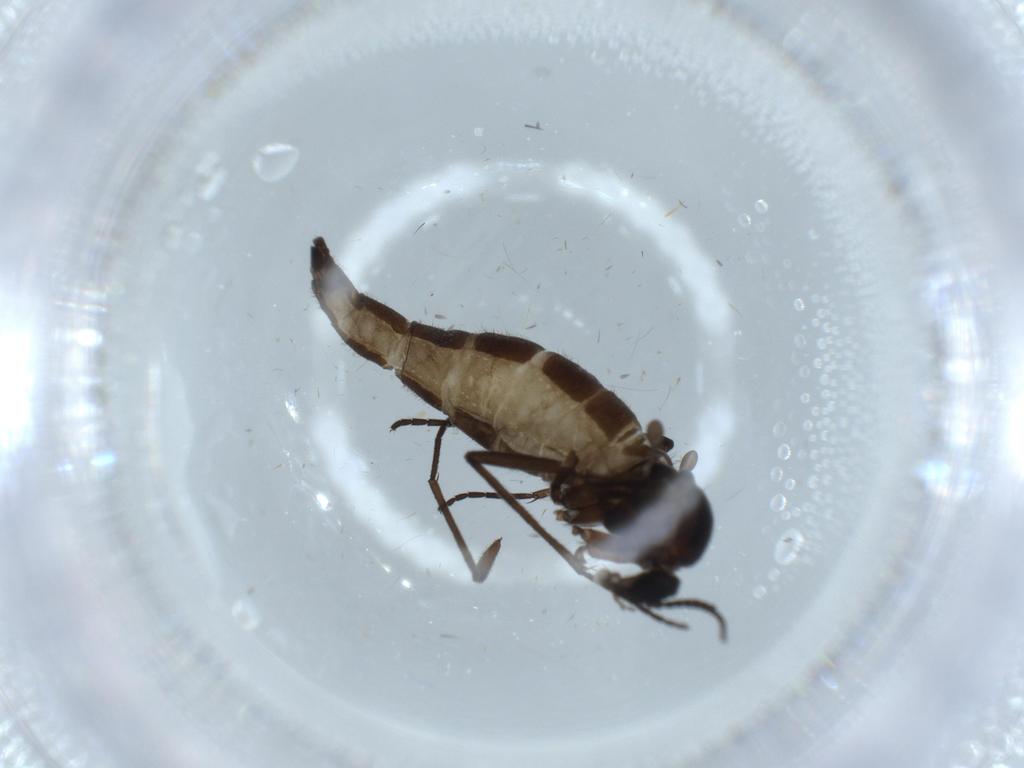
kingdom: Animalia
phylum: Arthropoda
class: Insecta
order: Diptera
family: Sciaridae
